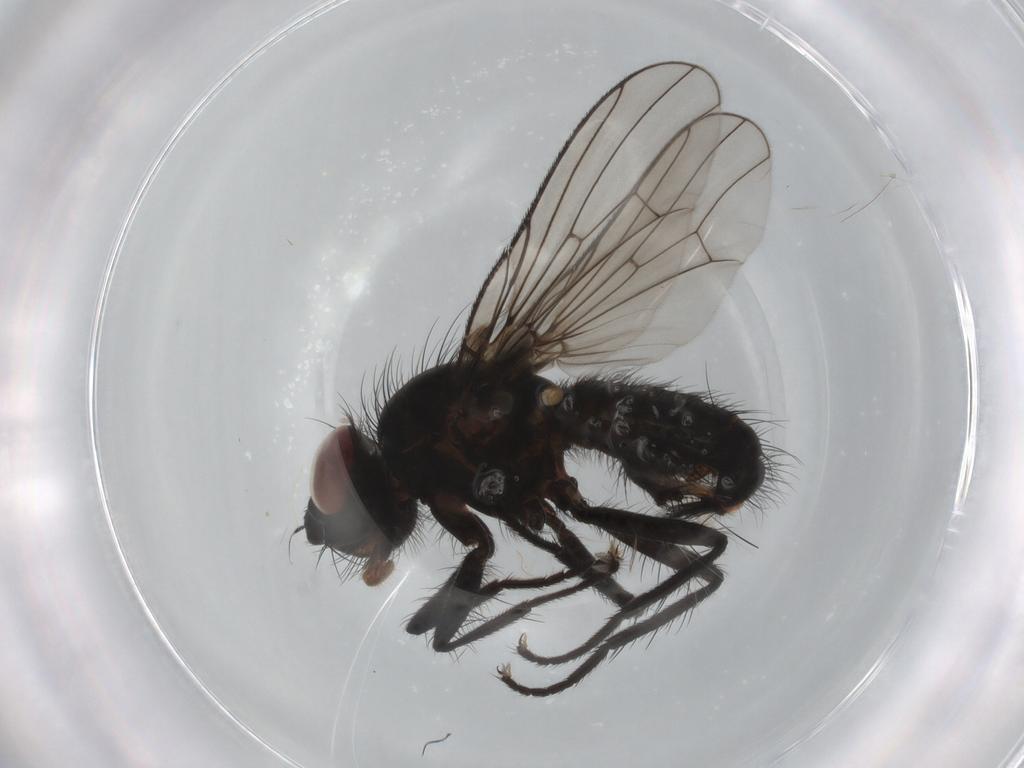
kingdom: Animalia
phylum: Arthropoda
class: Insecta
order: Diptera
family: Anthomyiidae
